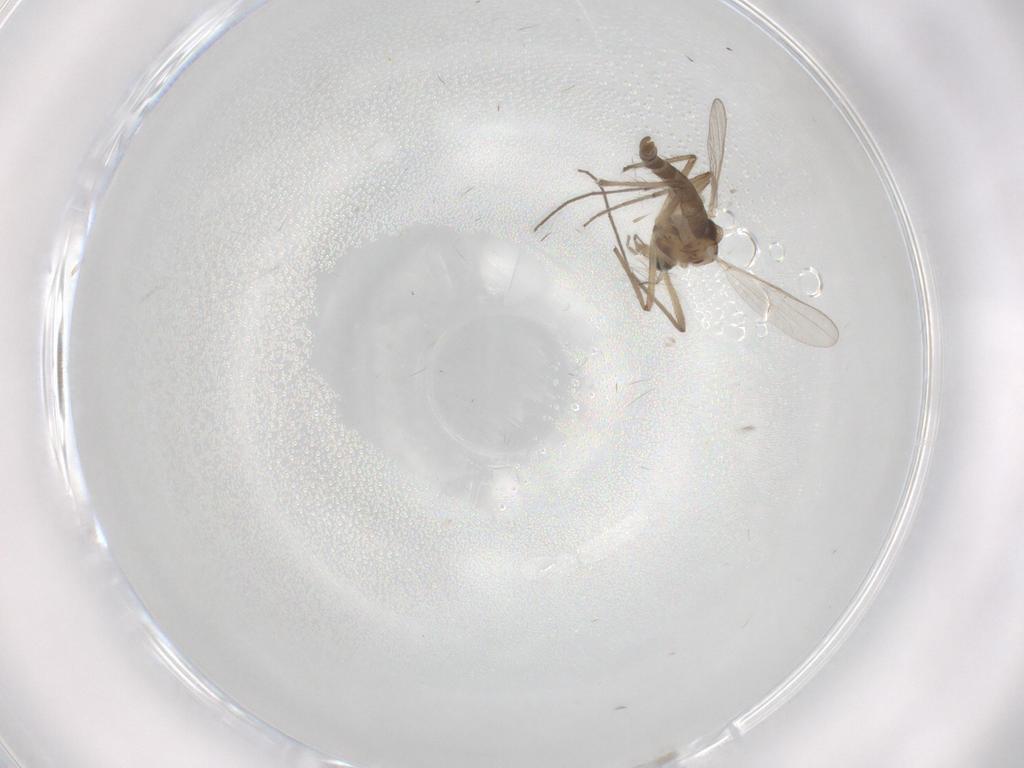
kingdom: Animalia
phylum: Arthropoda
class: Insecta
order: Diptera
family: Chironomidae
